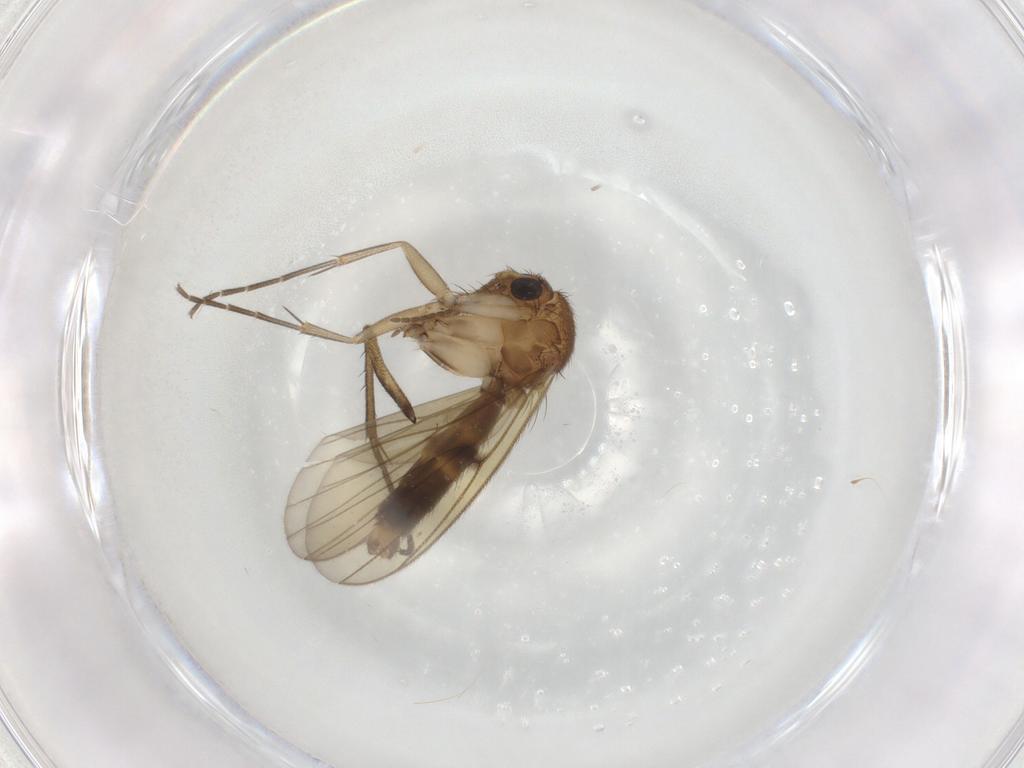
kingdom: Animalia
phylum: Arthropoda
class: Insecta
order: Diptera
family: Mycetophilidae
